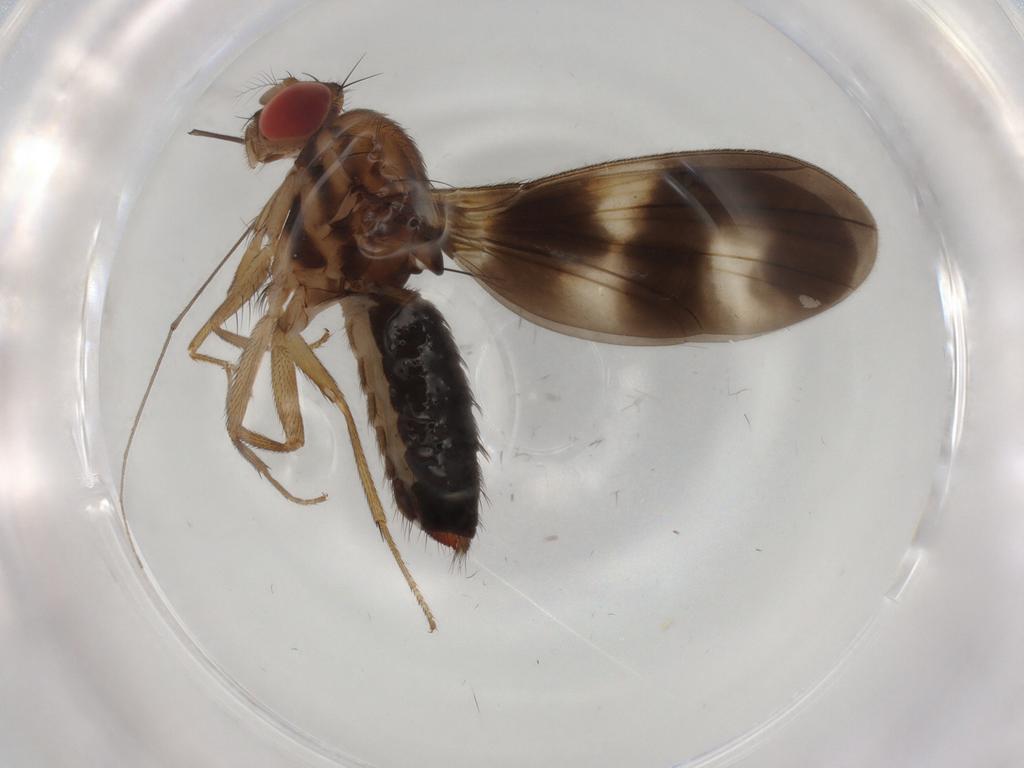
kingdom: Animalia
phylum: Arthropoda
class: Insecta
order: Diptera
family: Drosophilidae
